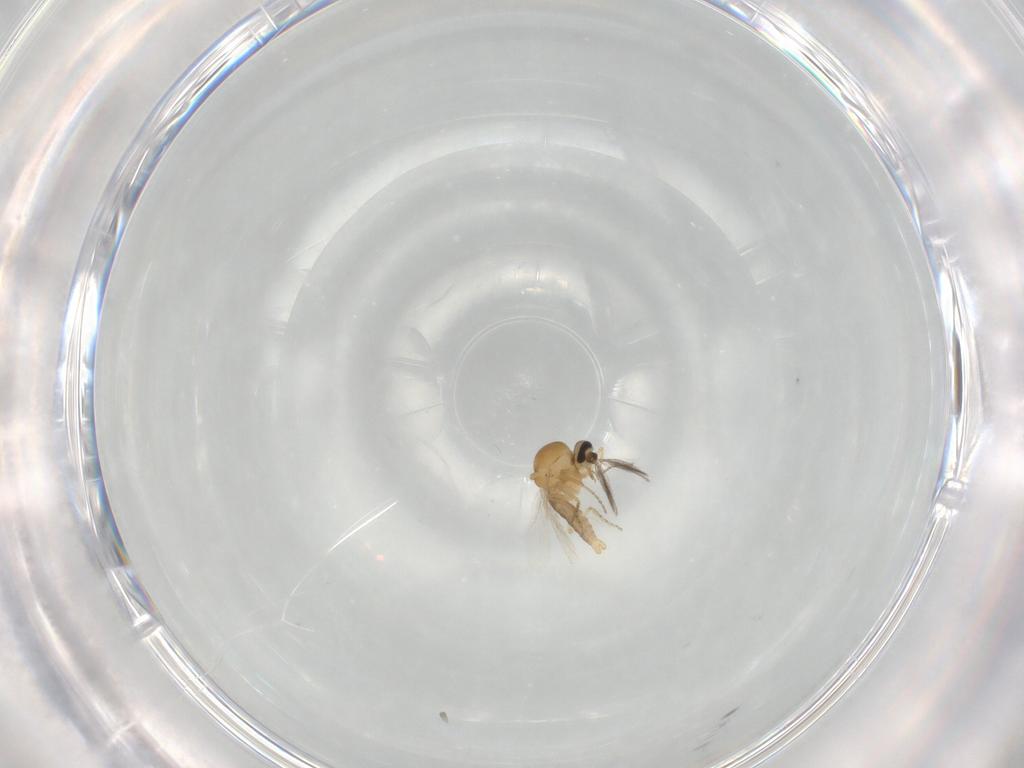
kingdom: Animalia
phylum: Arthropoda
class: Insecta
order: Diptera
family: Ceratopogonidae
